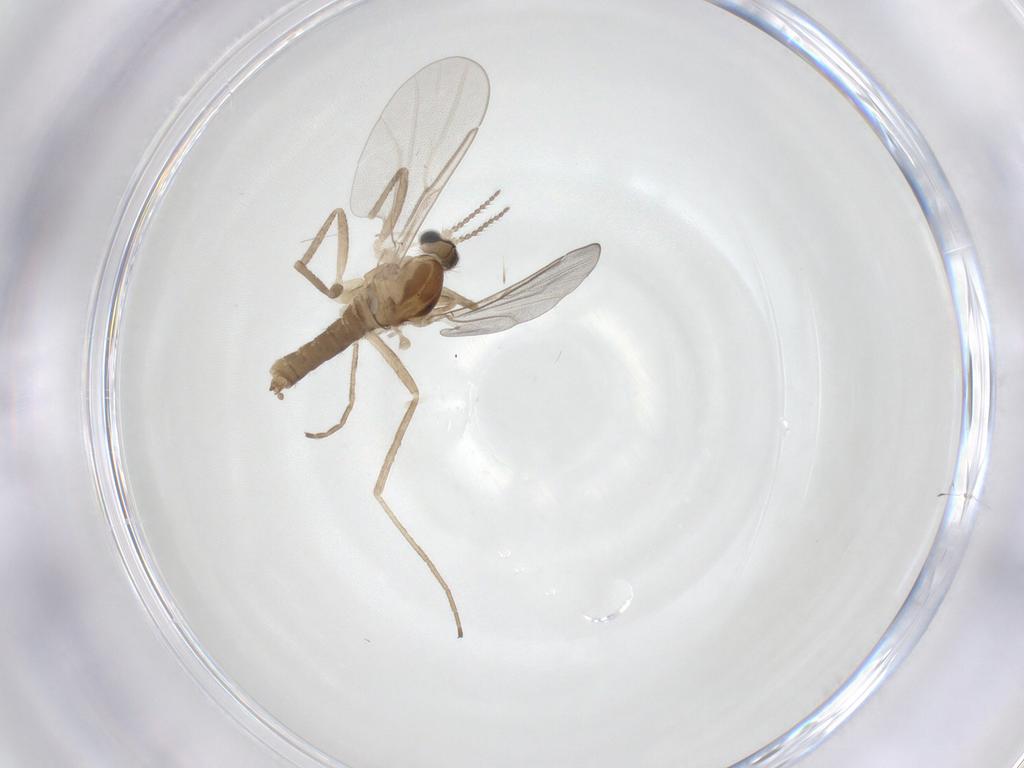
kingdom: Animalia
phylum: Arthropoda
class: Insecta
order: Diptera
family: Cecidomyiidae
